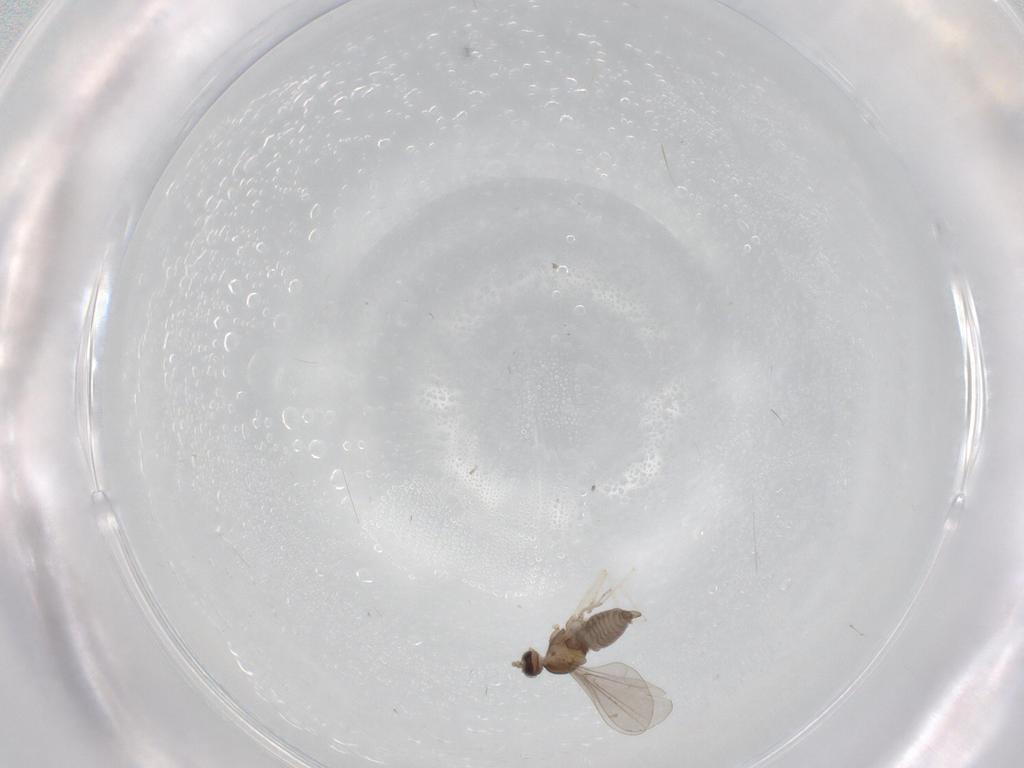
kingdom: Animalia
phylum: Arthropoda
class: Insecta
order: Diptera
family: Cecidomyiidae
